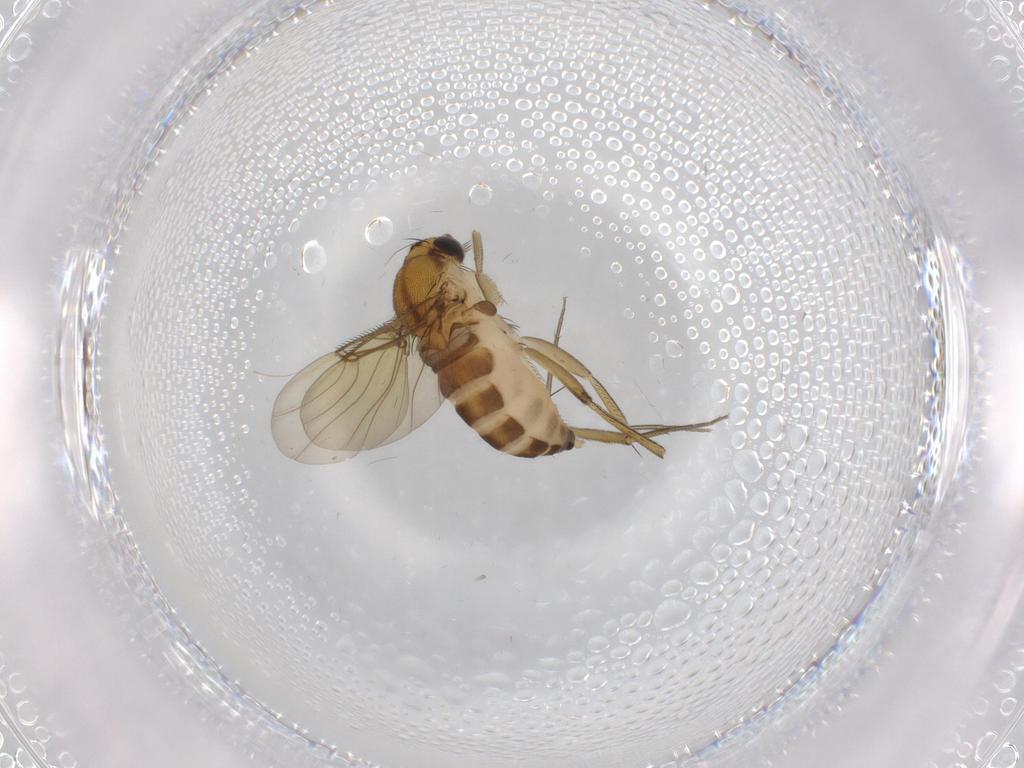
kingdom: Animalia
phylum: Arthropoda
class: Insecta
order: Diptera
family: Phoridae
